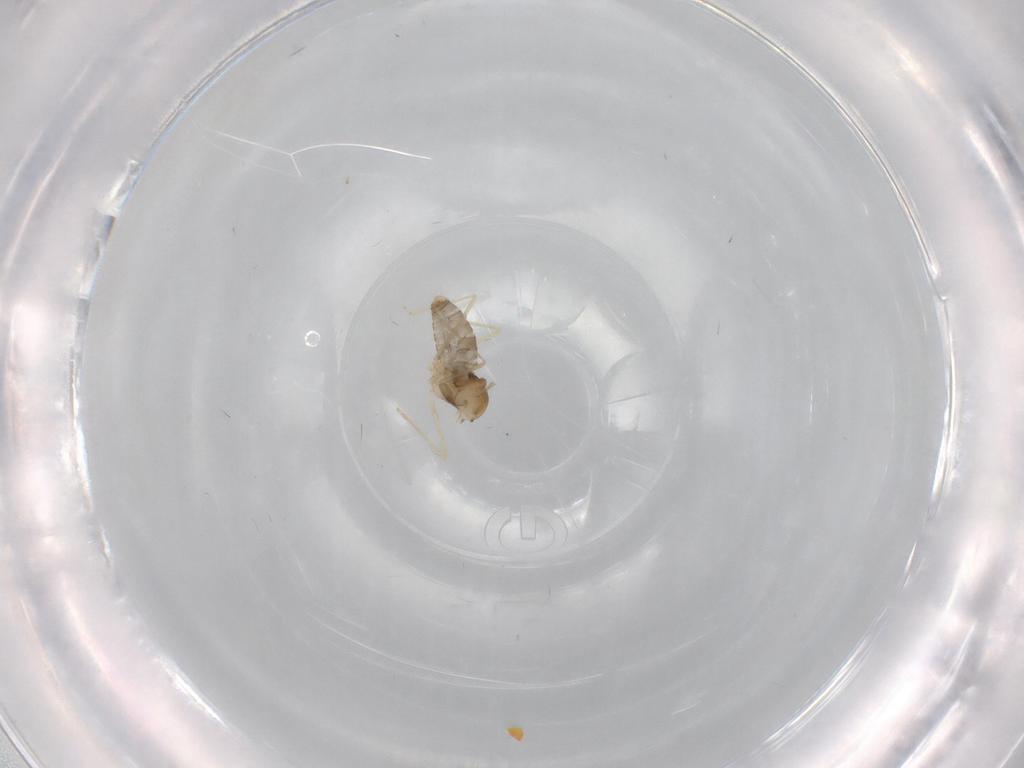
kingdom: Animalia
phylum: Arthropoda
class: Insecta
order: Diptera
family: Cecidomyiidae
